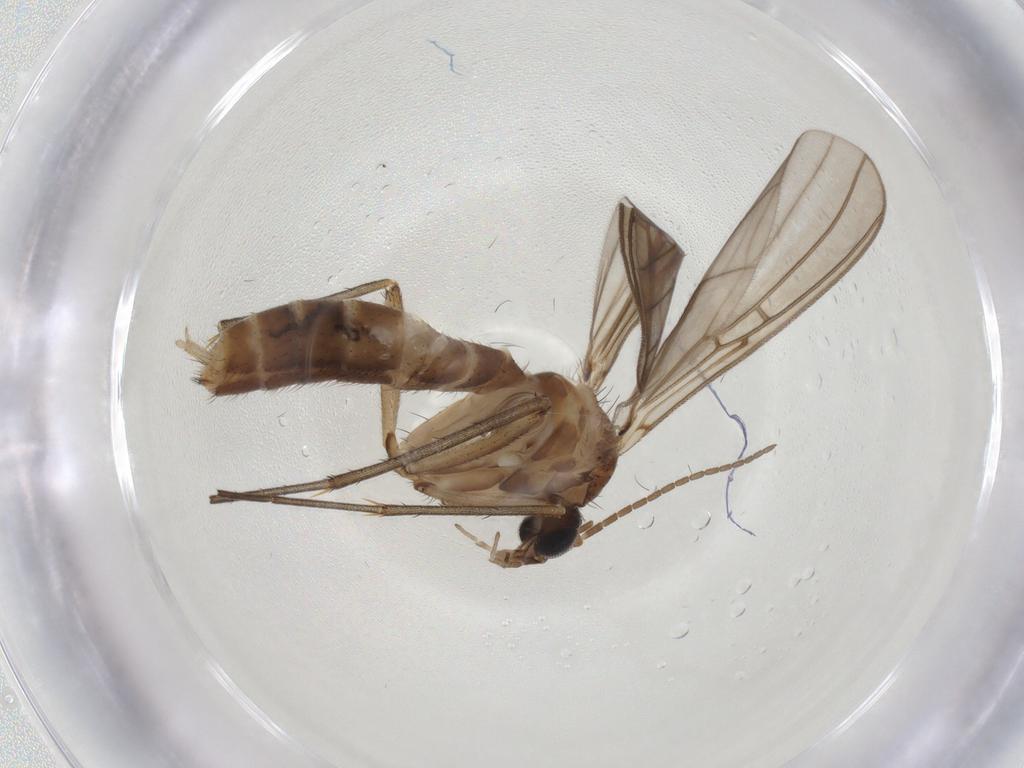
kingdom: Animalia
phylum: Arthropoda
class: Insecta
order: Diptera
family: Mycetophilidae
